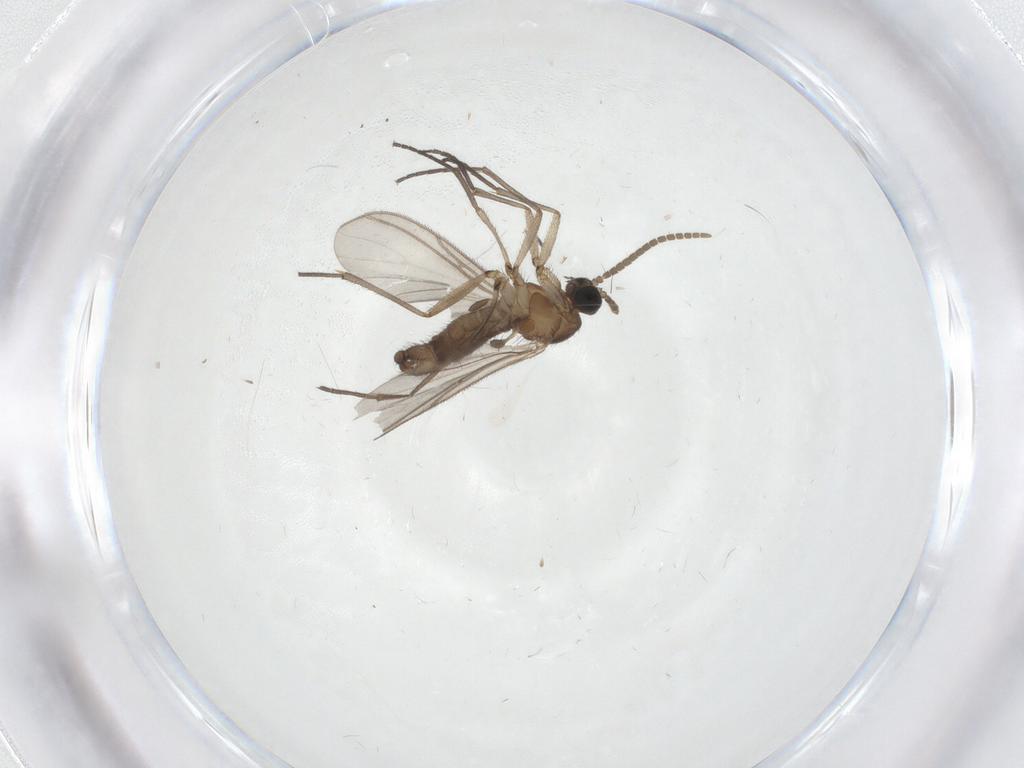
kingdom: Animalia
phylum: Arthropoda
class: Insecta
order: Diptera
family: Cecidomyiidae
